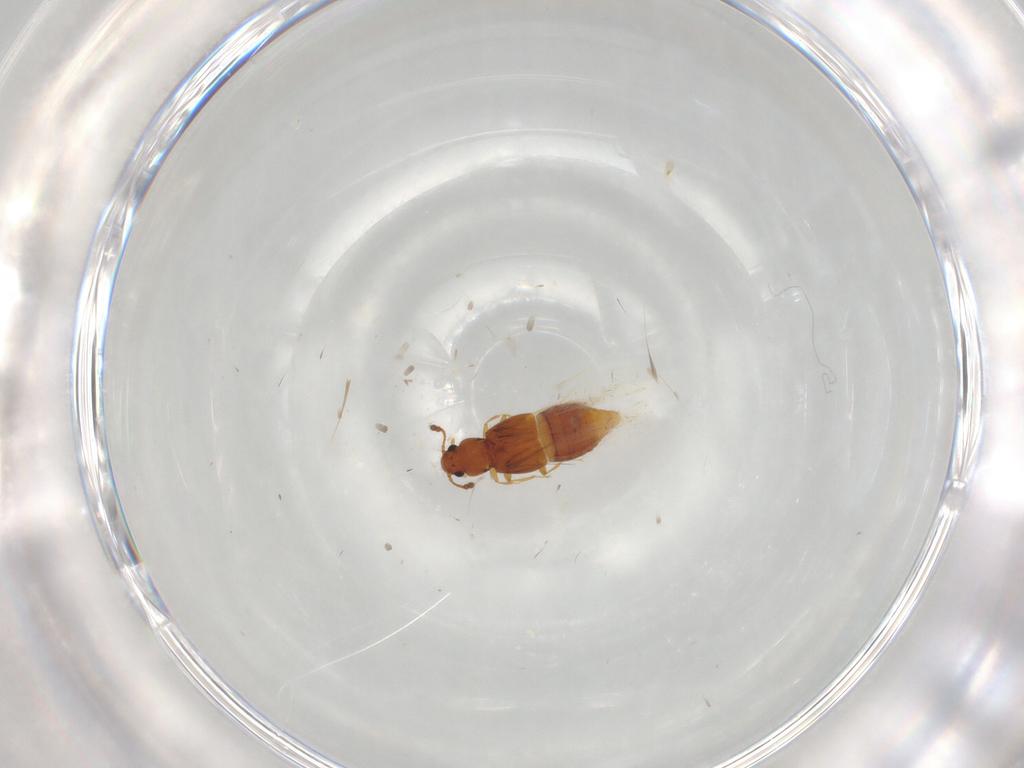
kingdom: Animalia
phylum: Arthropoda
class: Insecta
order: Coleoptera
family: Staphylinidae
